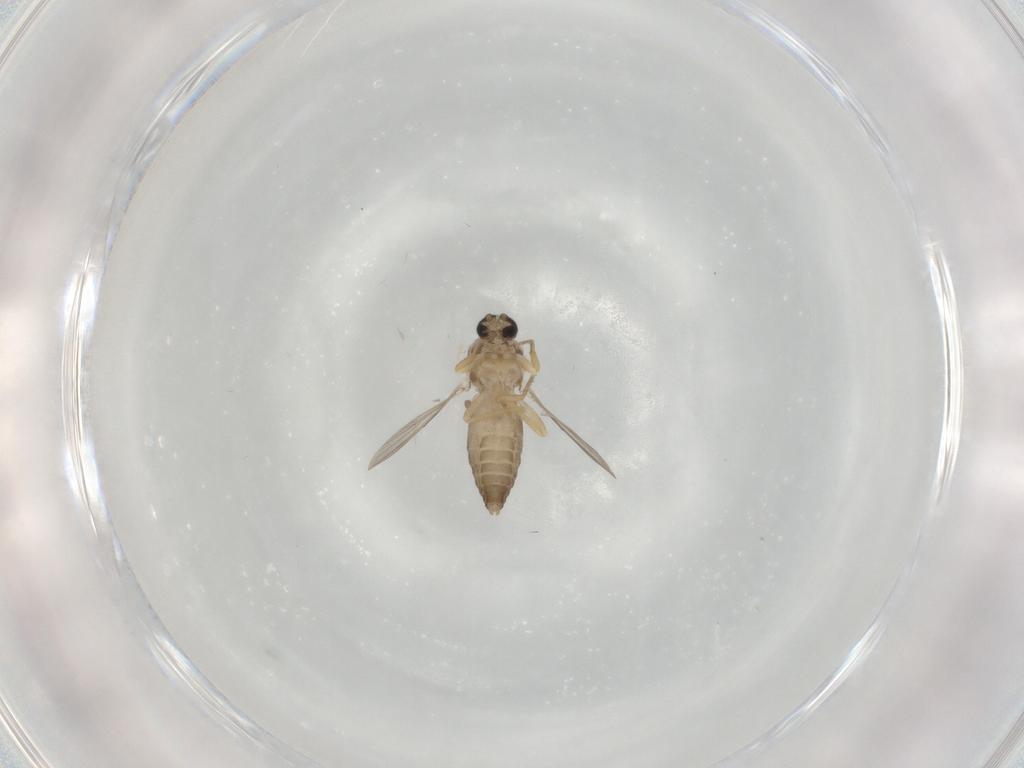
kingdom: Animalia
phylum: Arthropoda
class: Insecta
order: Diptera
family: Ceratopogonidae
